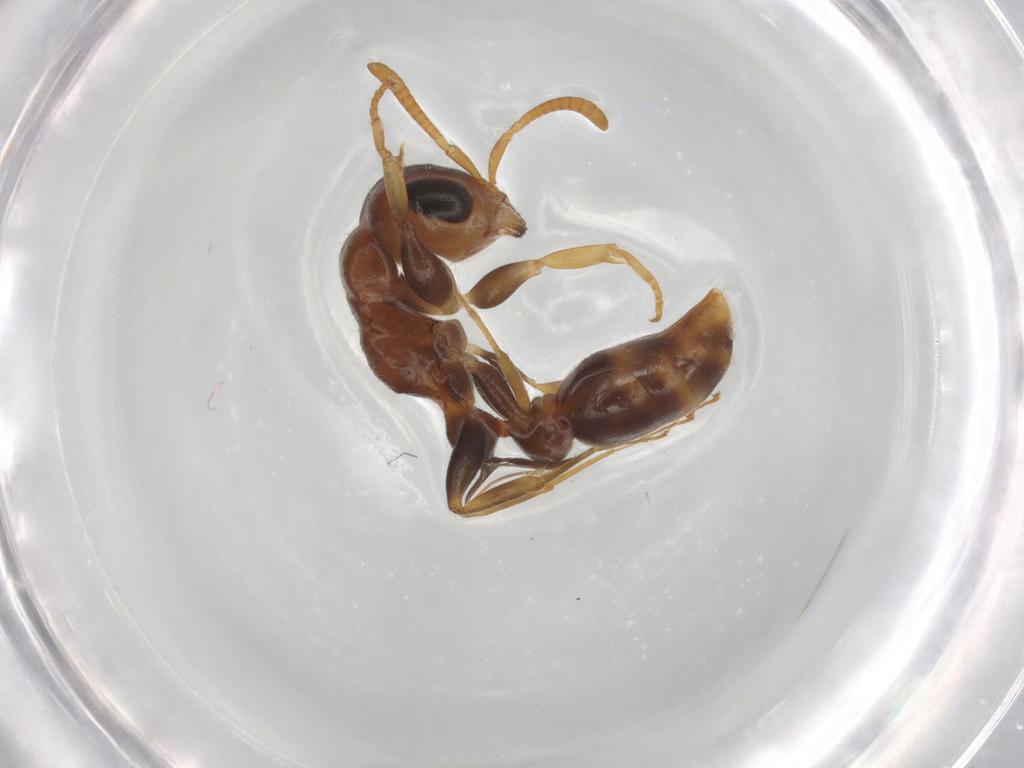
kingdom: Animalia
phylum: Arthropoda
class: Insecta
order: Hymenoptera
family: Formicidae
